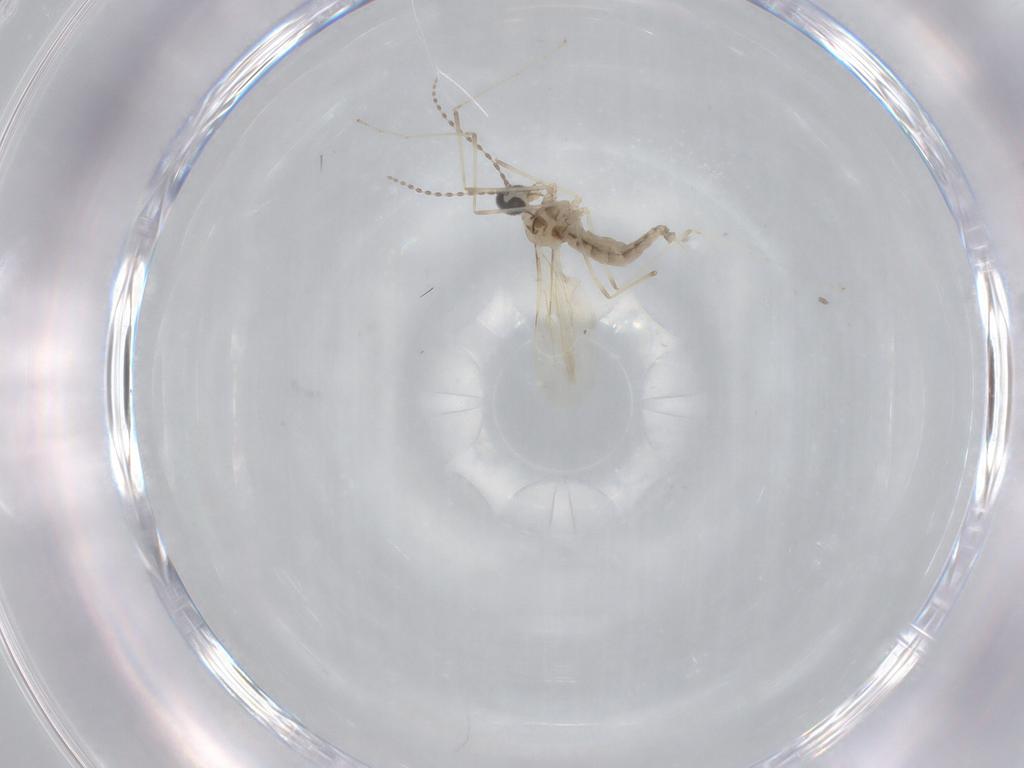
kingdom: Animalia
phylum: Arthropoda
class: Insecta
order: Diptera
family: Cecidomyiidae
